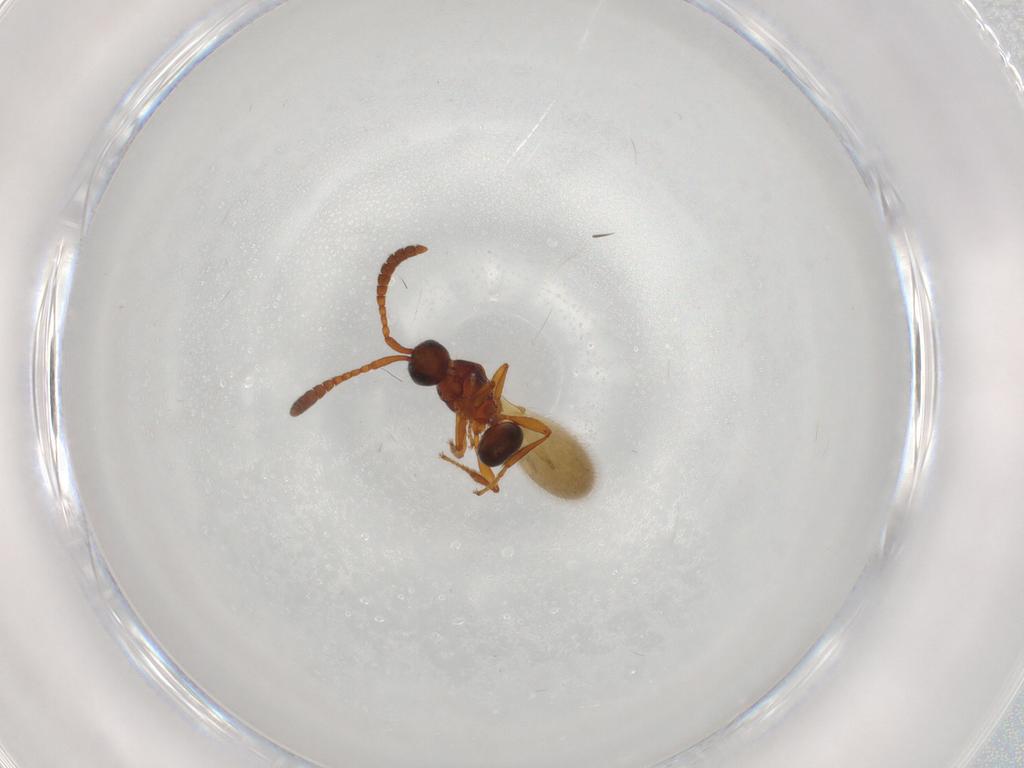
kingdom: Animalia
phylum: Arthropoda
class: Insecta
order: Hymenoptera
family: Diapriidae
